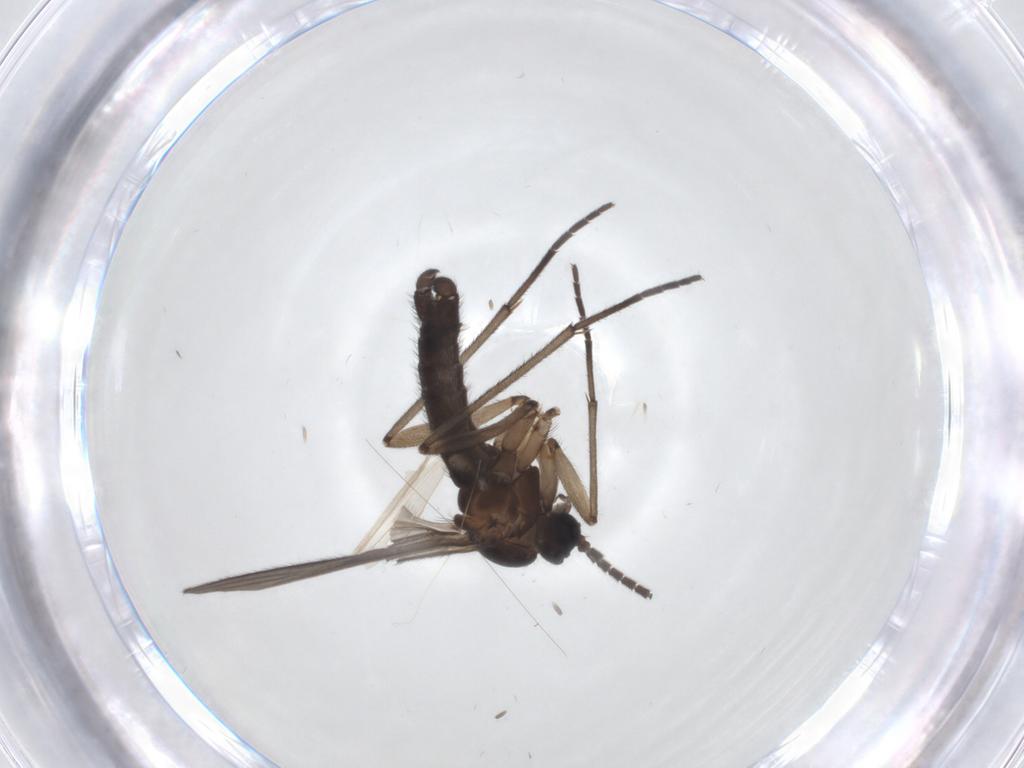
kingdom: Animalia
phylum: Arthropoda
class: Insecta
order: Diptera
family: Sciaridae
